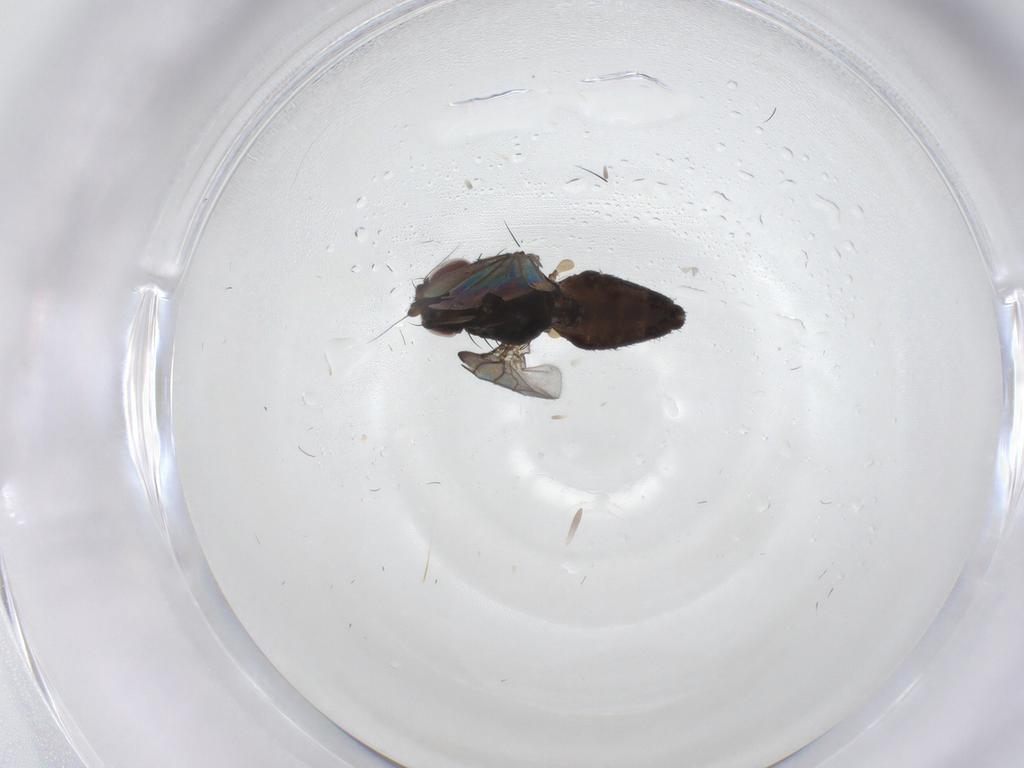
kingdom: Animalia
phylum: Arthropoda
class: Insecta
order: Diptera
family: Milichiidae
